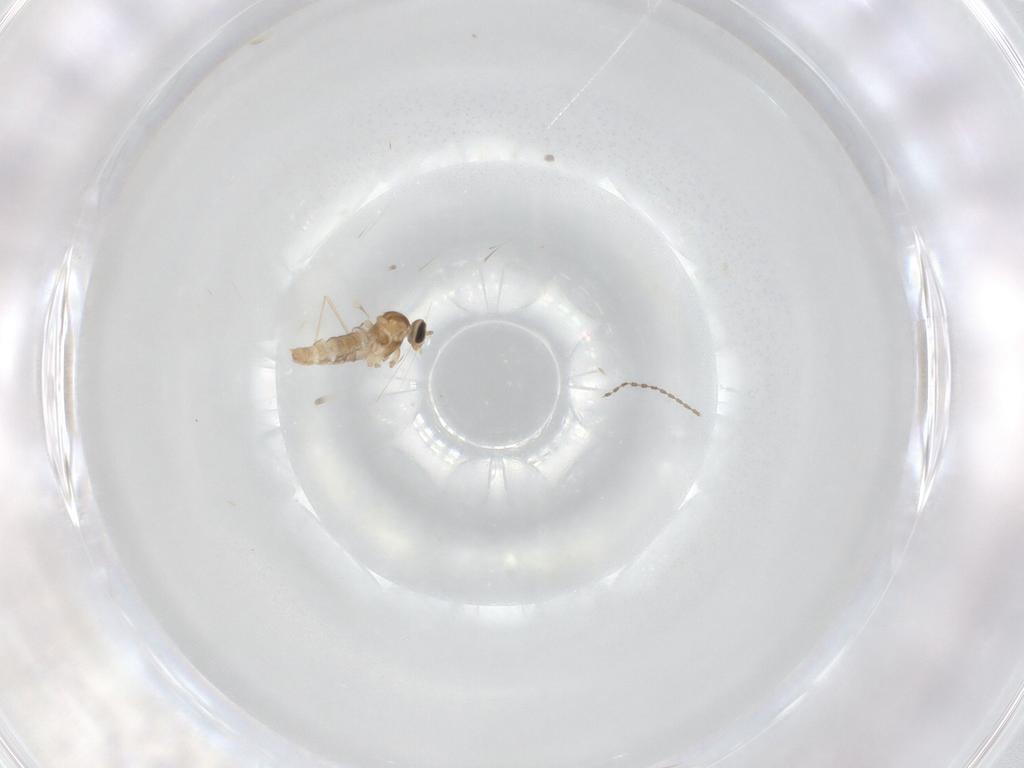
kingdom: Animalia
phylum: Arthropoda
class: Insecta
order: Diptera
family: Cecidomyiidae
